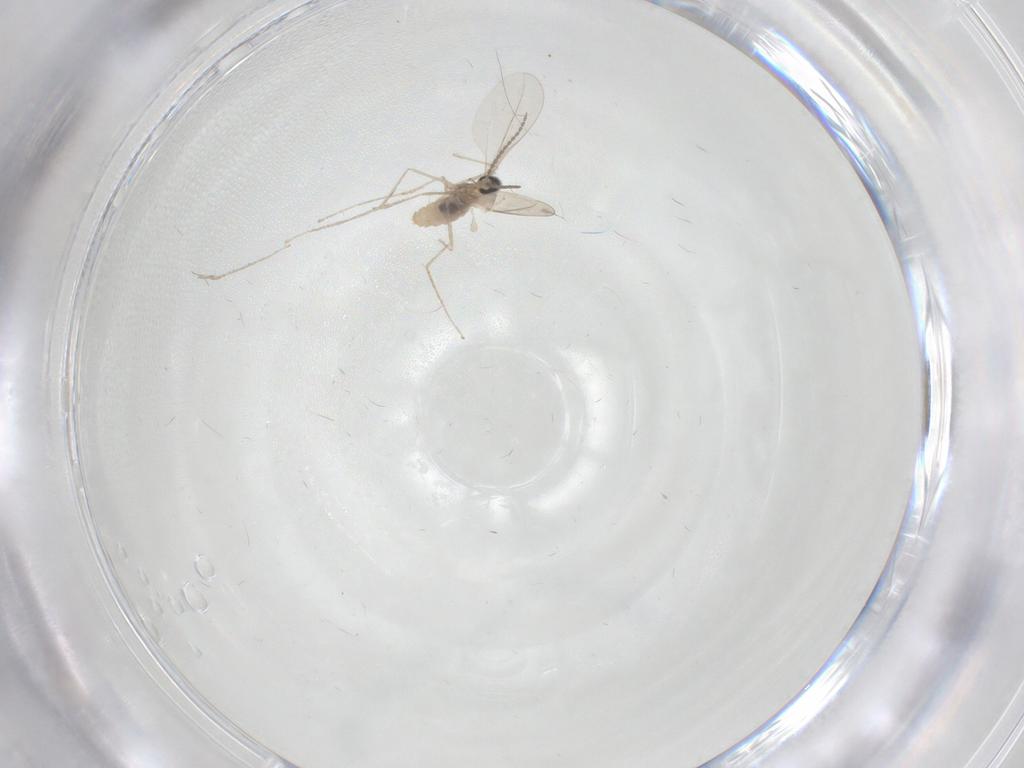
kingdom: Animalia
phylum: Arthropoda
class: Insecta
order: Diptera
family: Cecidomyiidae
